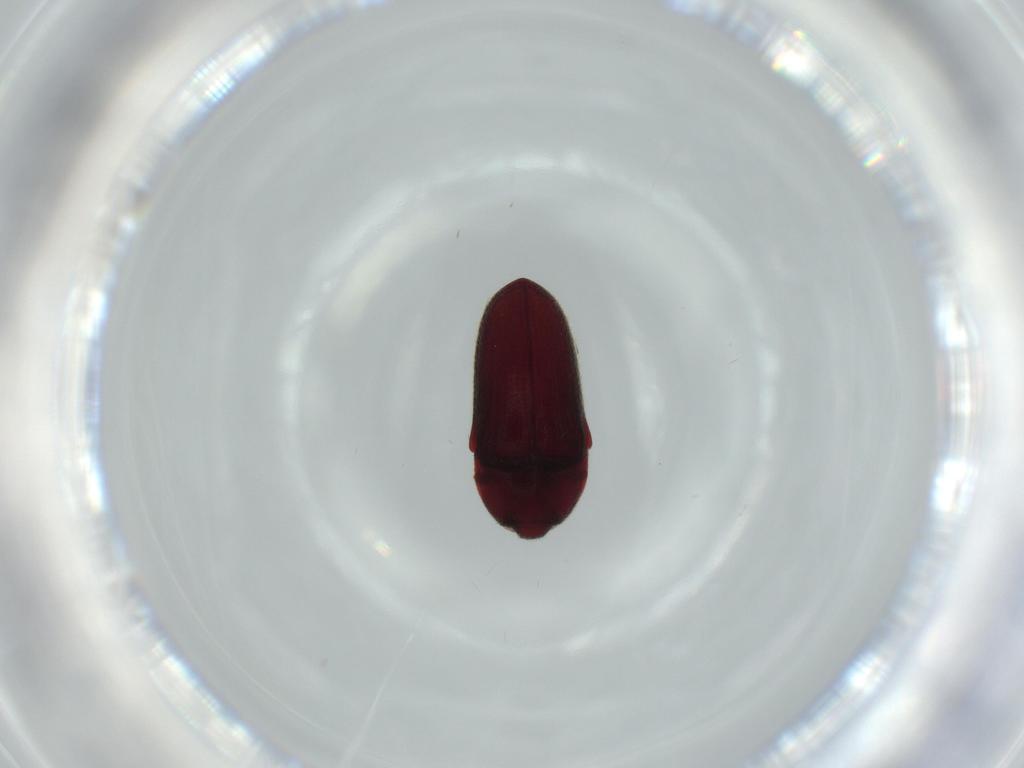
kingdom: Animalia
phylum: Arthropoda
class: Insecta
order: Coleoptera
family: Throscidae
